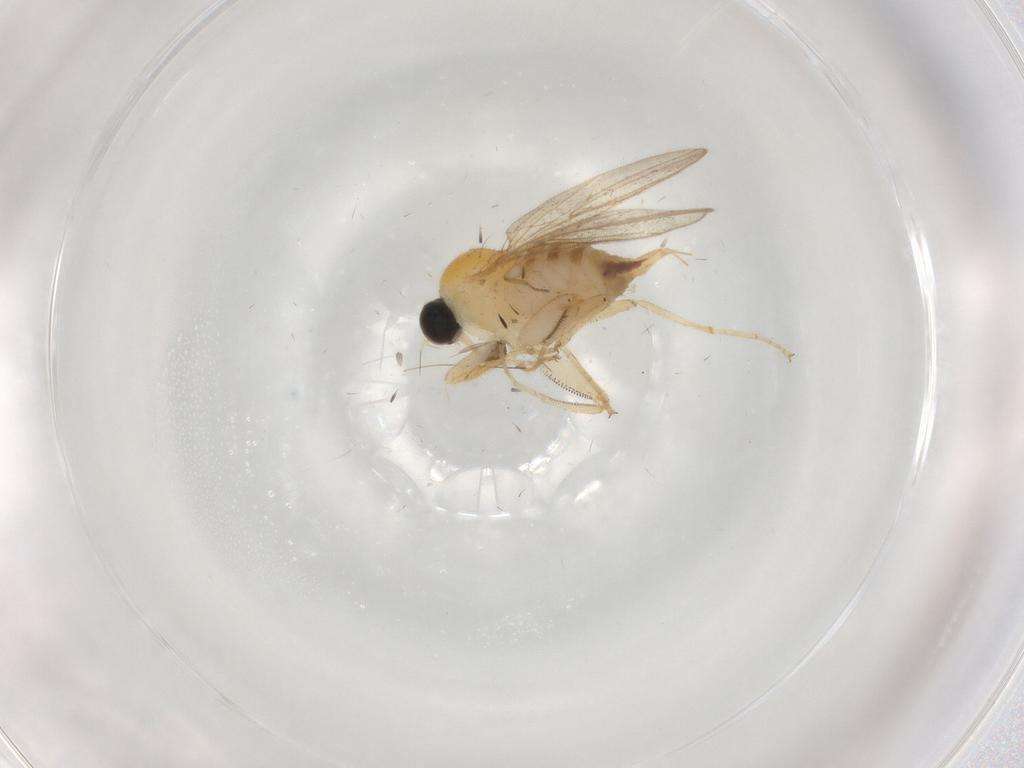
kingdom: Animalia
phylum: Arthropoda
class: Insecta
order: Diptera
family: Hybotidae
